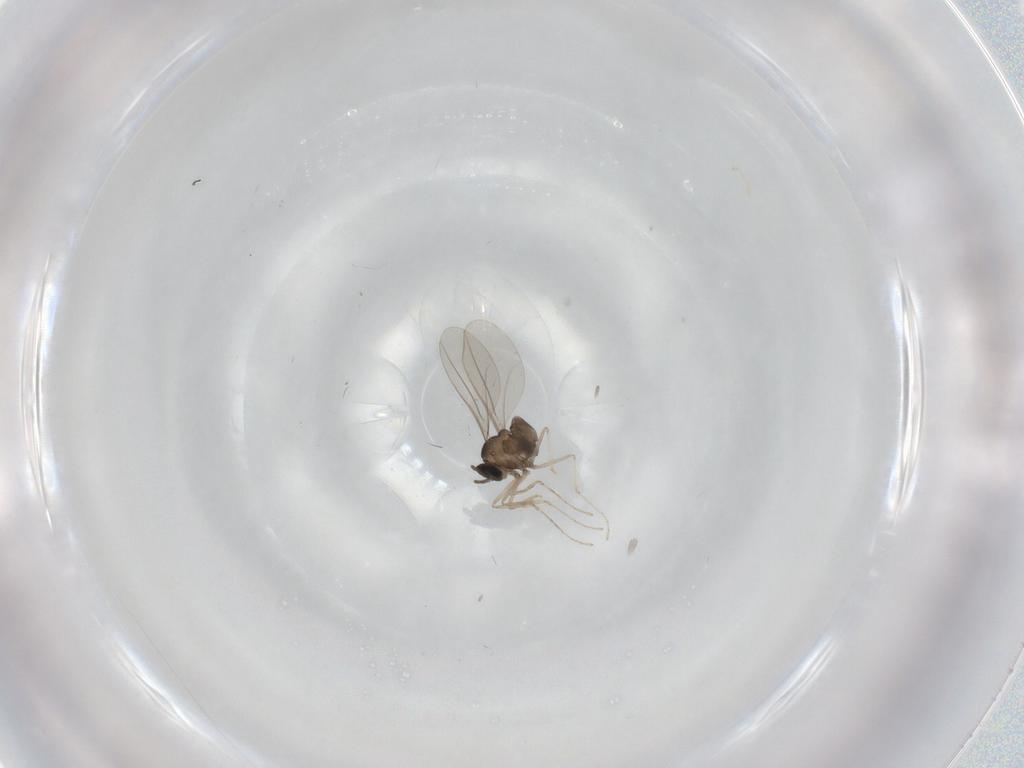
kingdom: Animalia
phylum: Arthropoda
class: Insecta
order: Diptera
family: Cecidomyiidae
